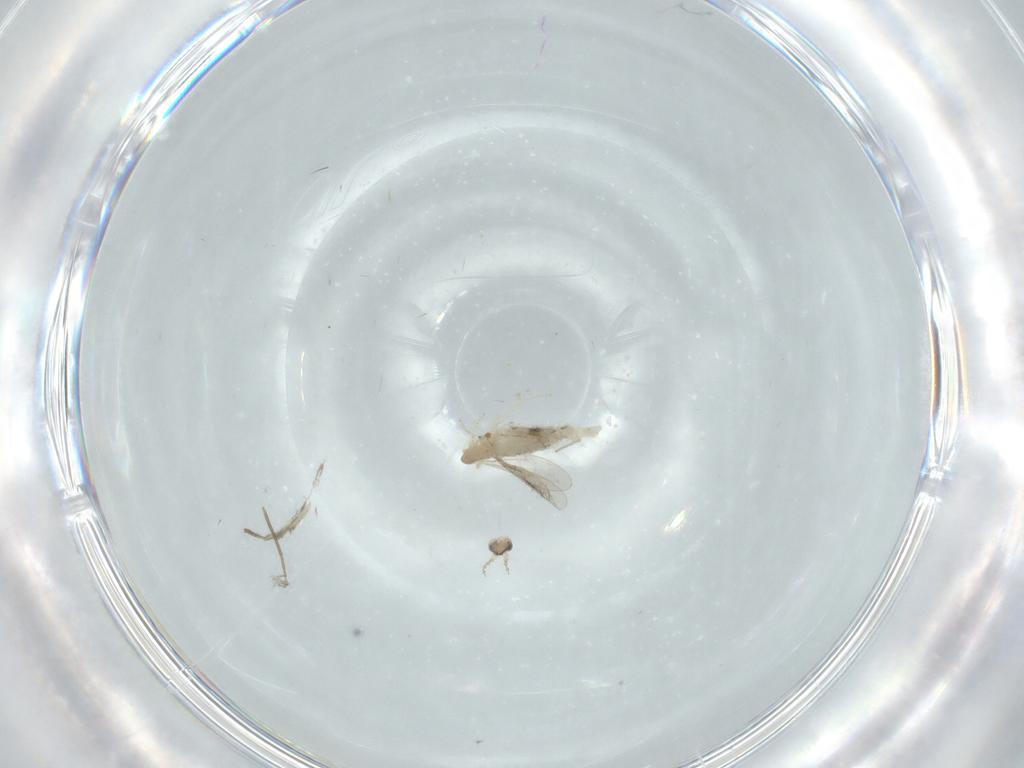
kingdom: Animalia
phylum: Arthropoda
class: Insecta
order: Diptera
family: Cecidomyiidae
